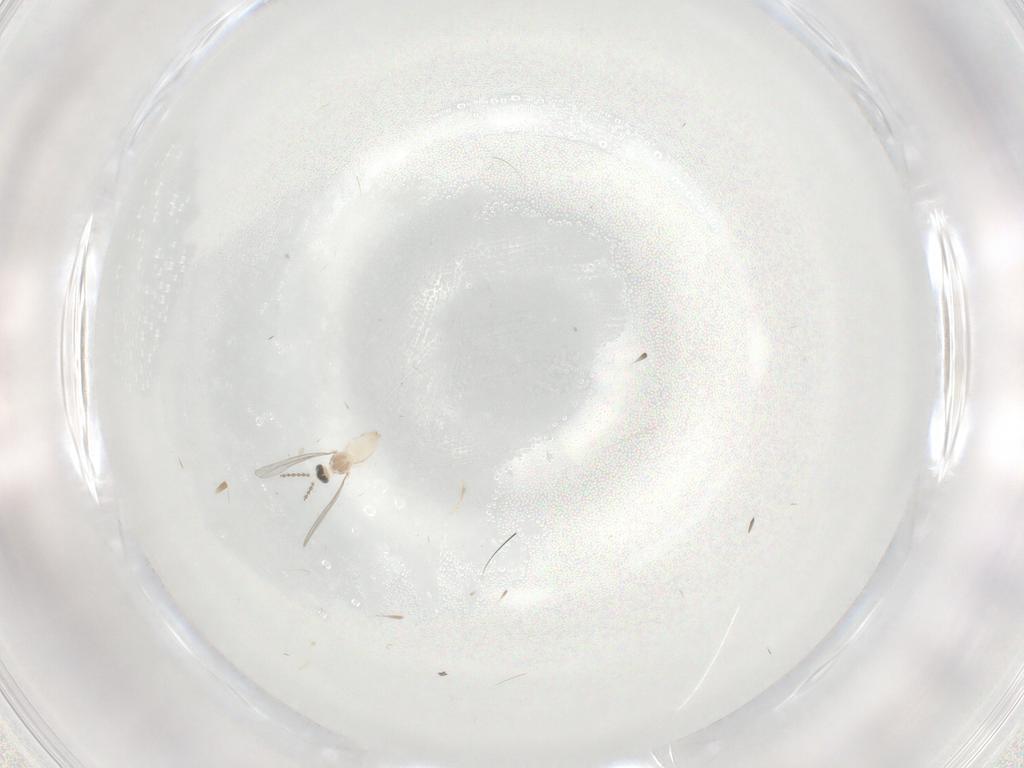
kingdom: Animalia
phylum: Arthropoda
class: Insecta
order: Diptera
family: Cecidomyiidae
